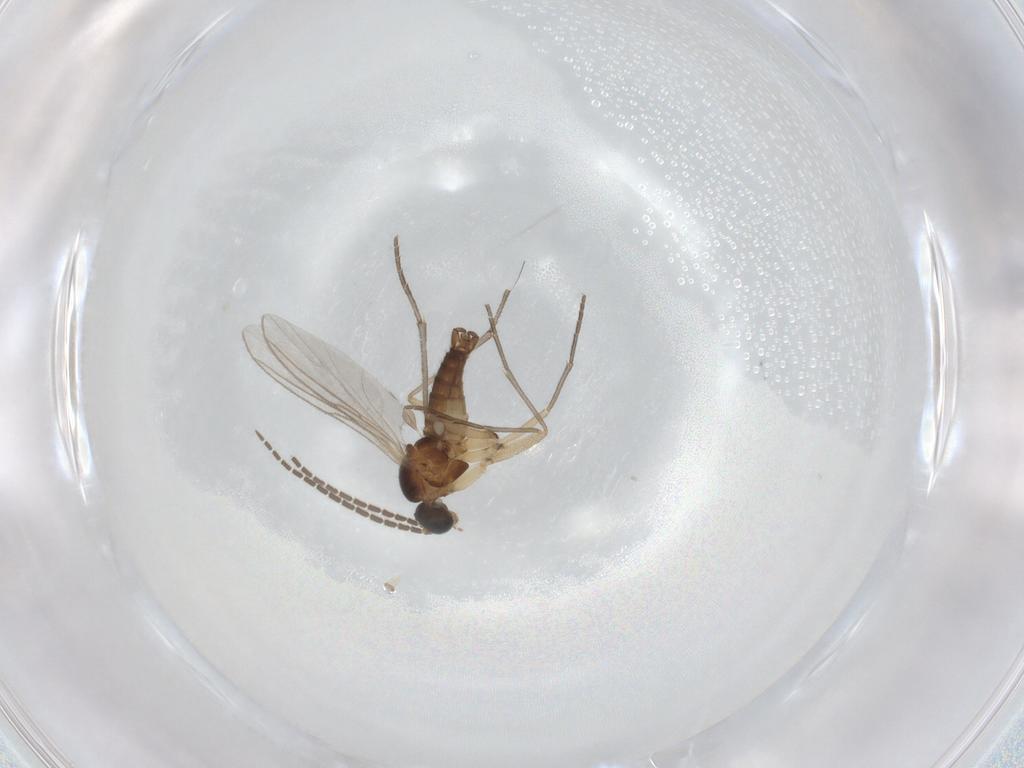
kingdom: Animalia
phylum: Arthropoda
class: Insecta
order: Diptera
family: Sciaridae
